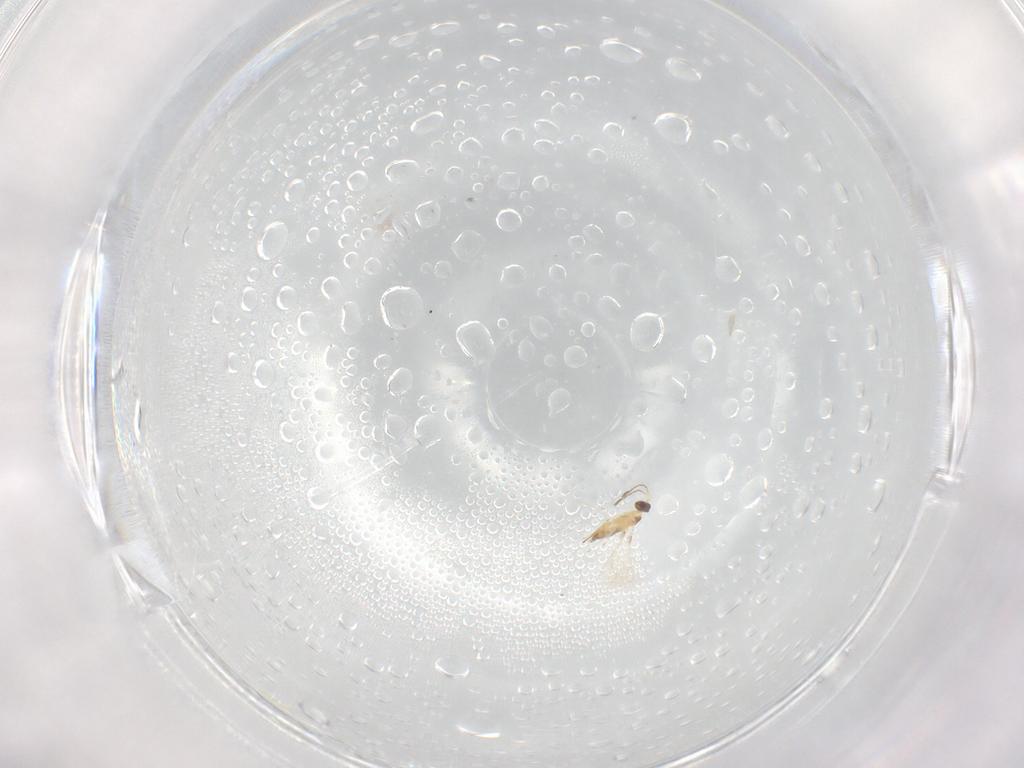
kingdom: Animalia
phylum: Arthropoda
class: Insecta
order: Hymenoptera
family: Mymaridae
